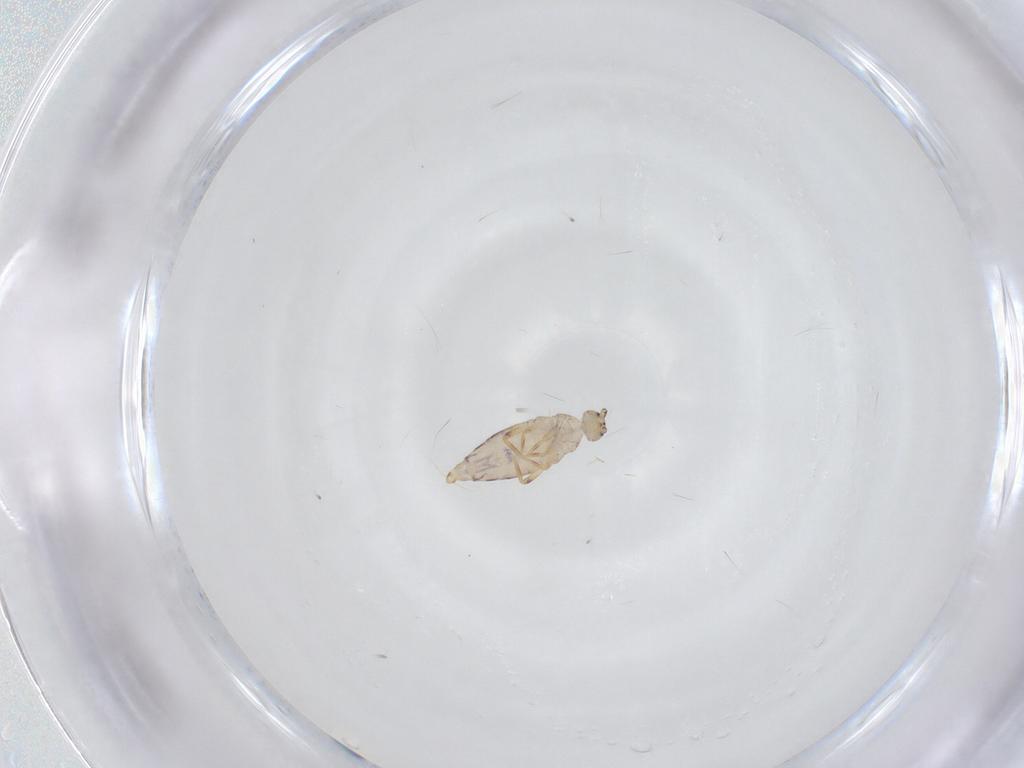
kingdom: Animalia
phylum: Arthropoda
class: Collembola
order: Entomobryomorpha
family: Entomobryidae
